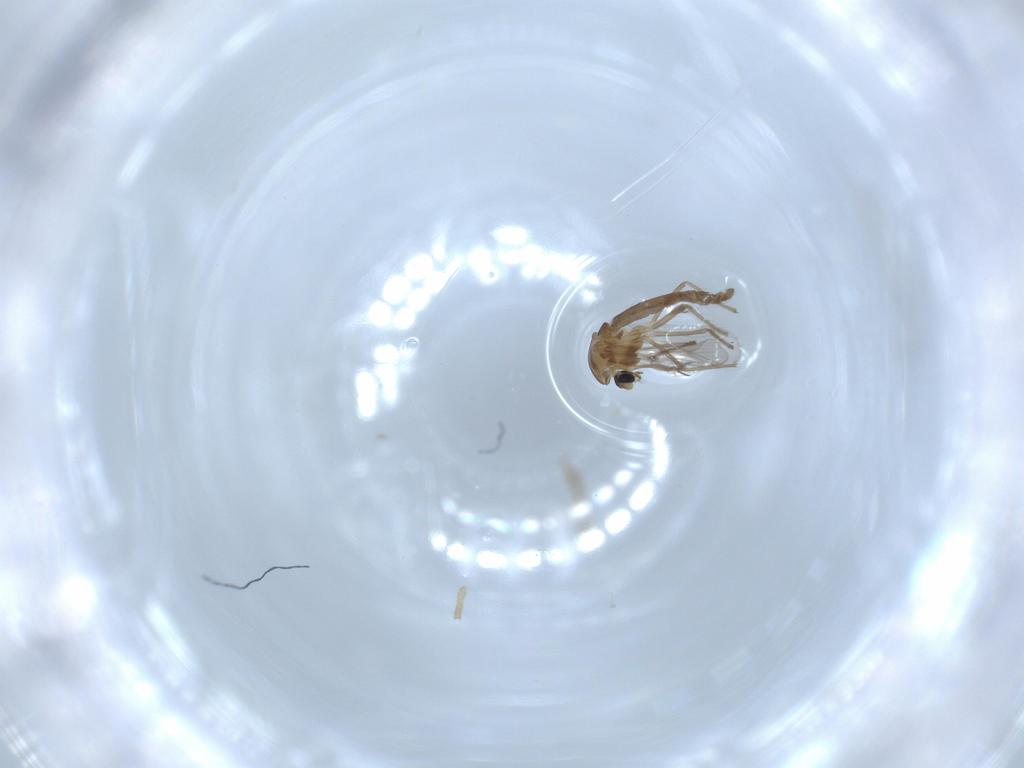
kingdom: Animalia
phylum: Arthropoda
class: Insecta
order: Diptera
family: Chironomidae
